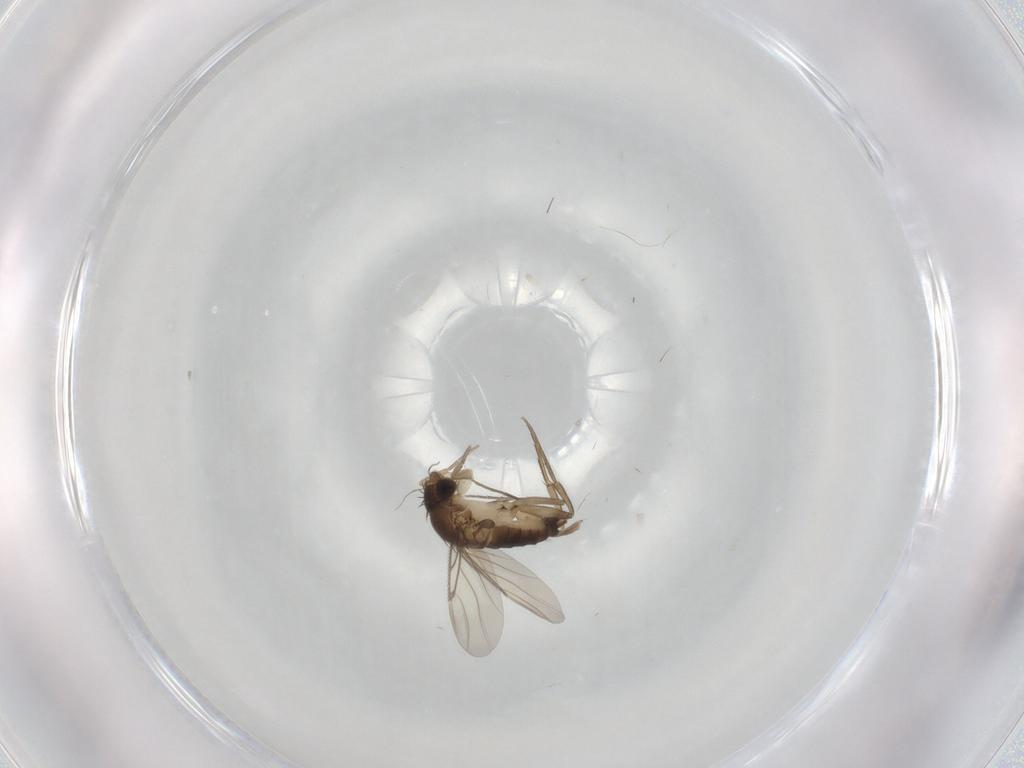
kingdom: Animalia
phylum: Arthropoda
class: Insecta
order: Diptera
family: Phoridae
